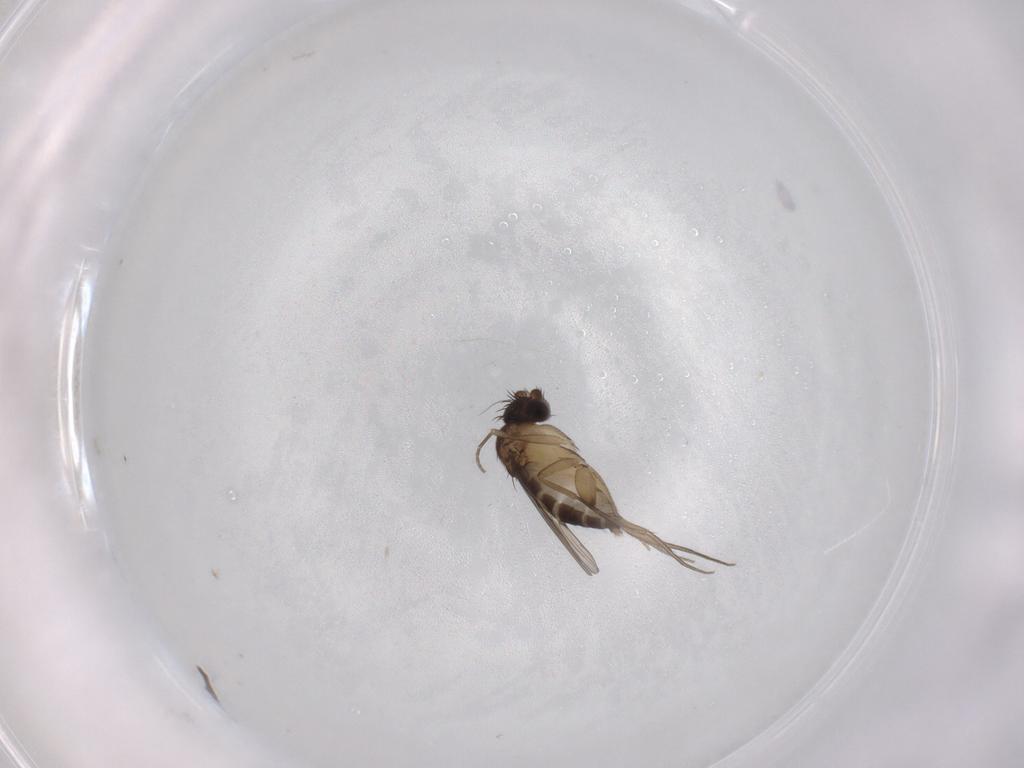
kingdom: Animalia
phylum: Arthropoda
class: Insecta
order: Diptera
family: Phoridae
